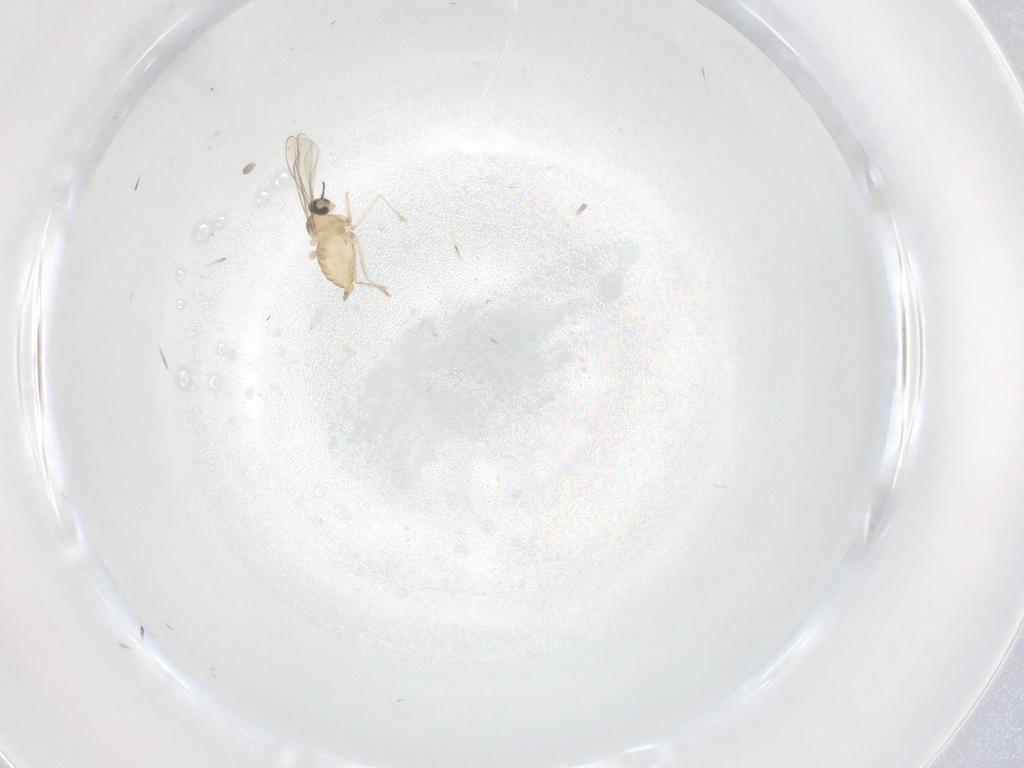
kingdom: Animalia
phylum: Arthropoda
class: Insecta
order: Diptera
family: Cecidomyiidae
